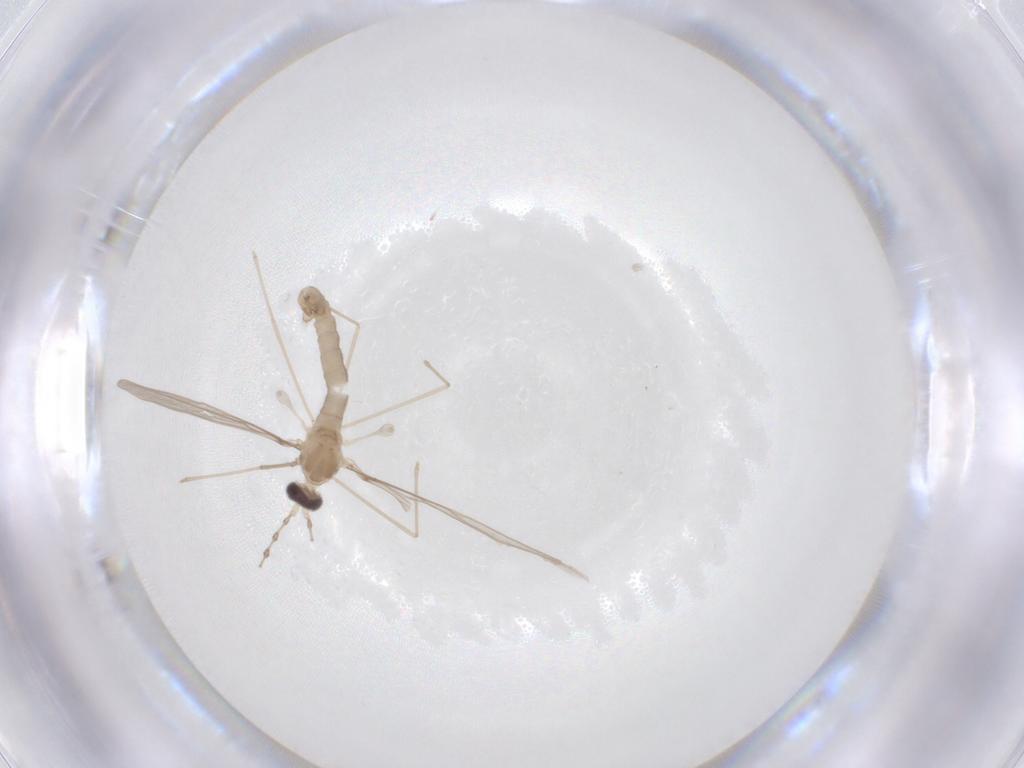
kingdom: Animalia
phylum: Arthropoda
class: Insecta
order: Diptera
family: Cecidomyiidae
